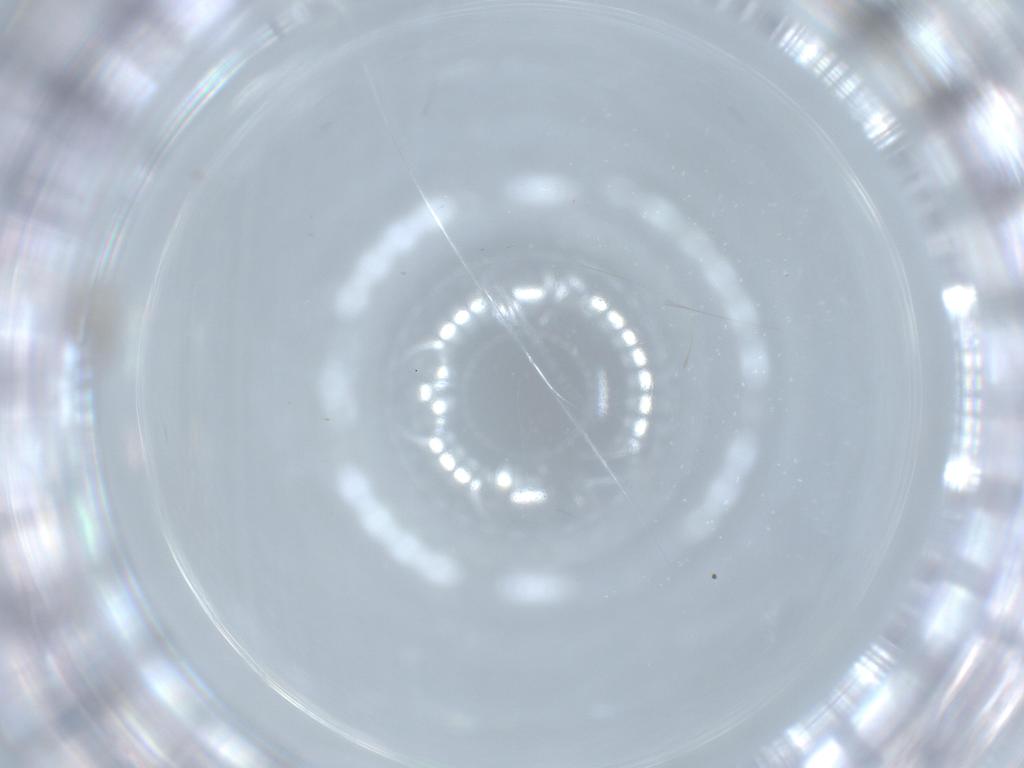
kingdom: Animalia
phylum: Arthropoda
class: Insecta
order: Diptera
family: Cecidomyiidae
